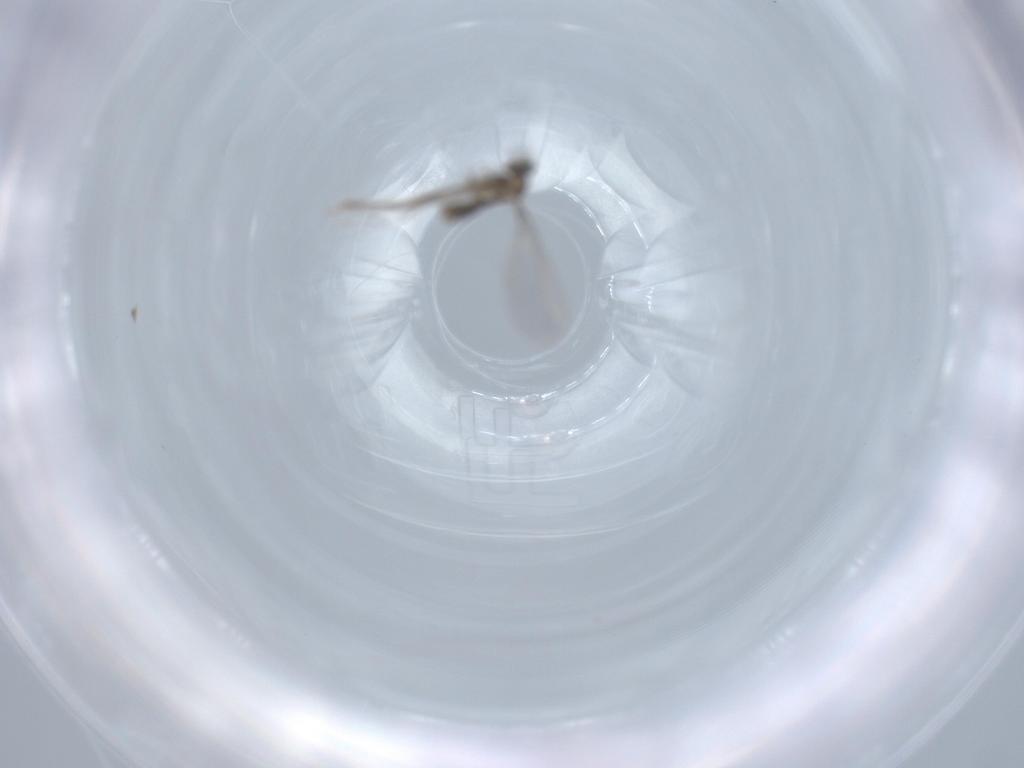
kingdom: Animalia
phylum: Arthropoda
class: Insecta
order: Diptera
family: Cecidomyiidae
